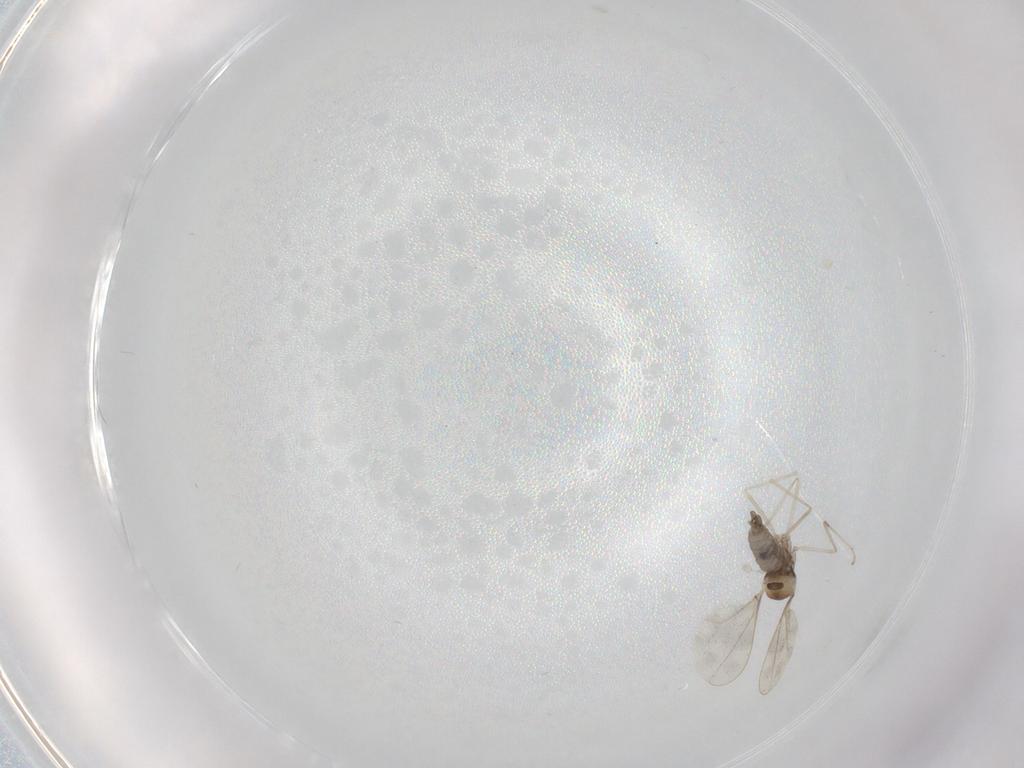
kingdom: Animalia
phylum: Arthropoda
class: Insecta
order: Diptera
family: Cecidomyiidae
